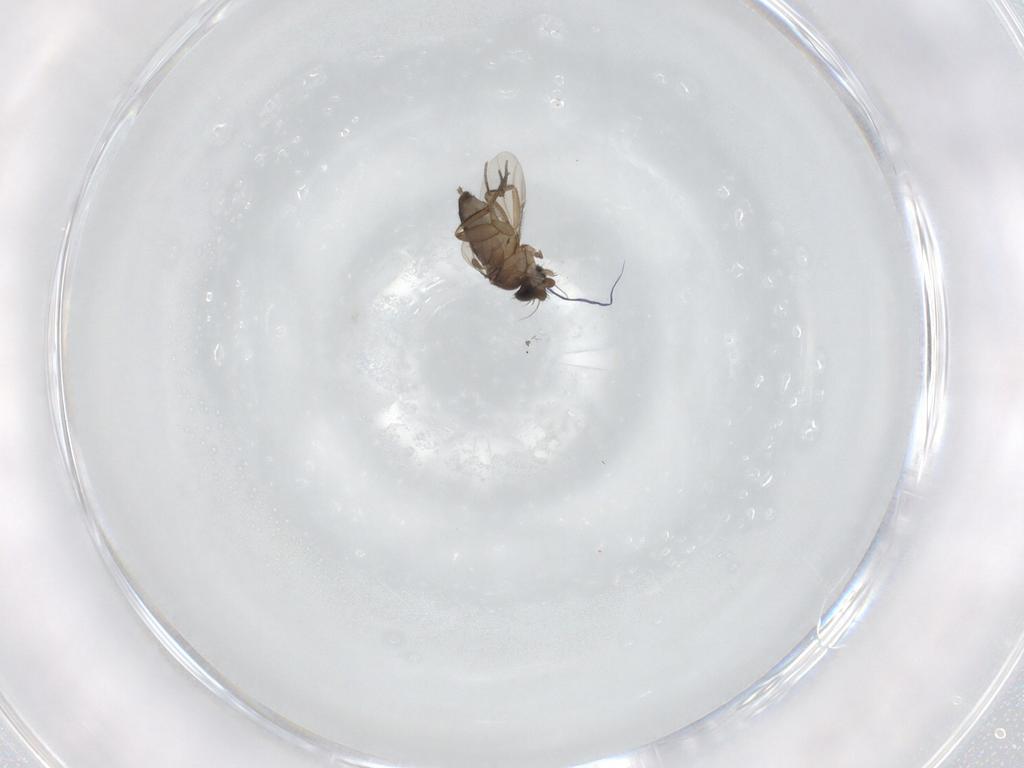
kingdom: Animalia
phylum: Arthropoda
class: Insecta
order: Diptera
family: Phoridae
